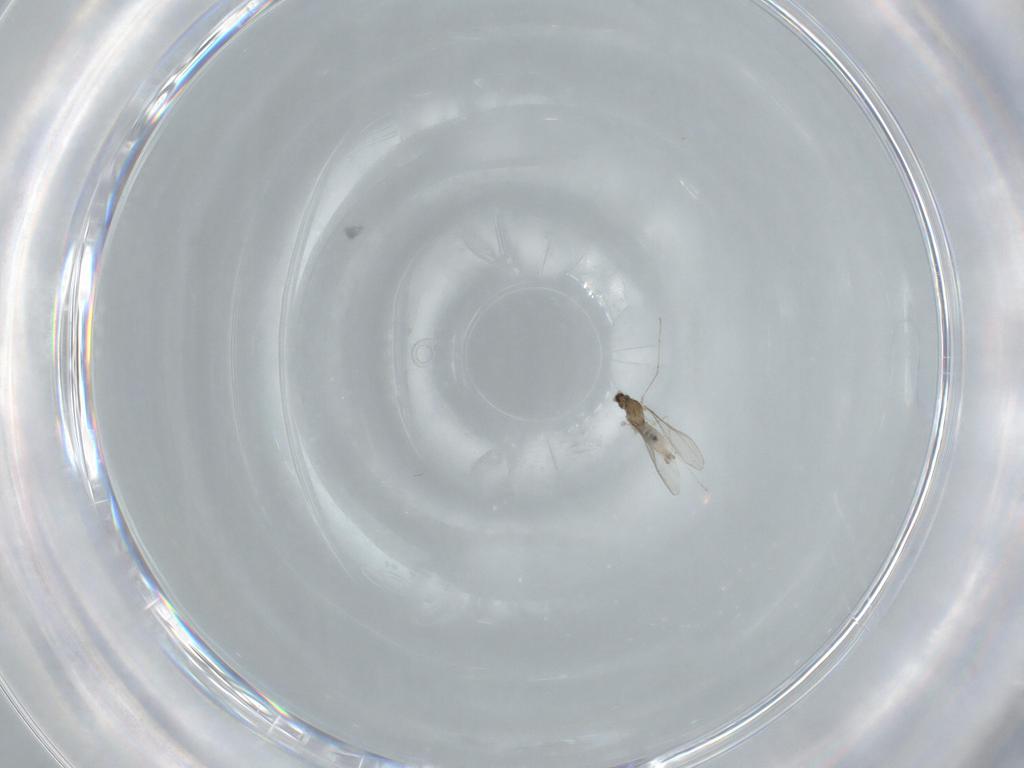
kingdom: Animalia
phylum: Arthropoda
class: Insecta
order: Diptera
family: Cecidomyiidae
